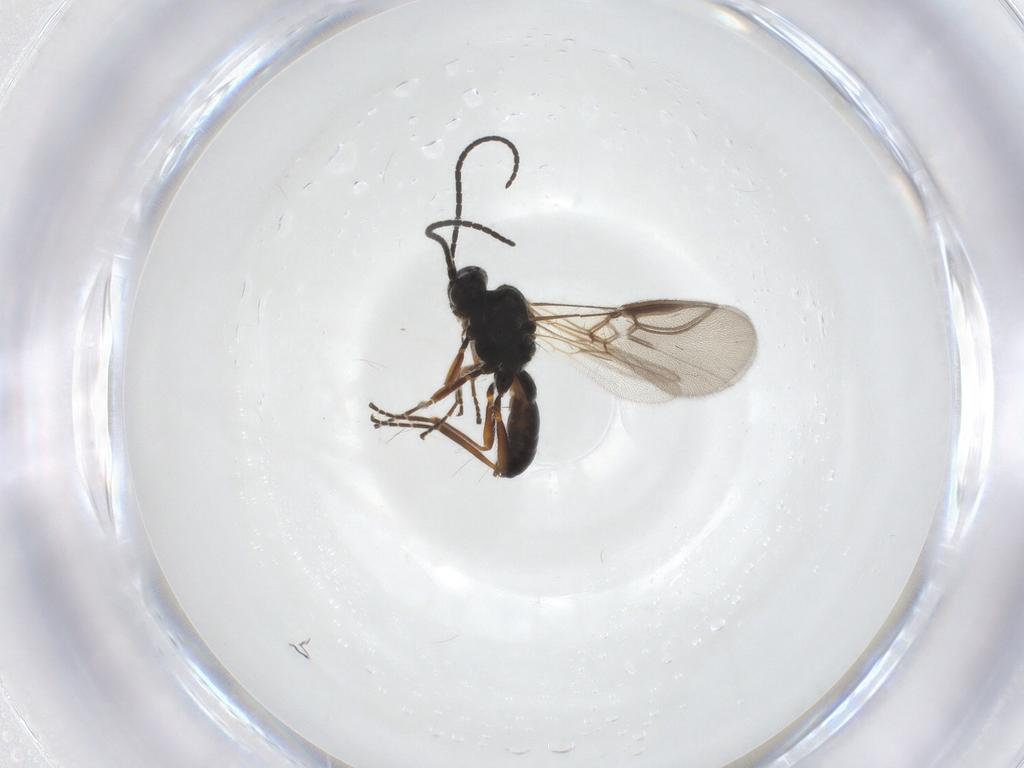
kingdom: Animalia
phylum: Arthropoda
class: Insecta
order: Hymenoptera
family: Braconidae
